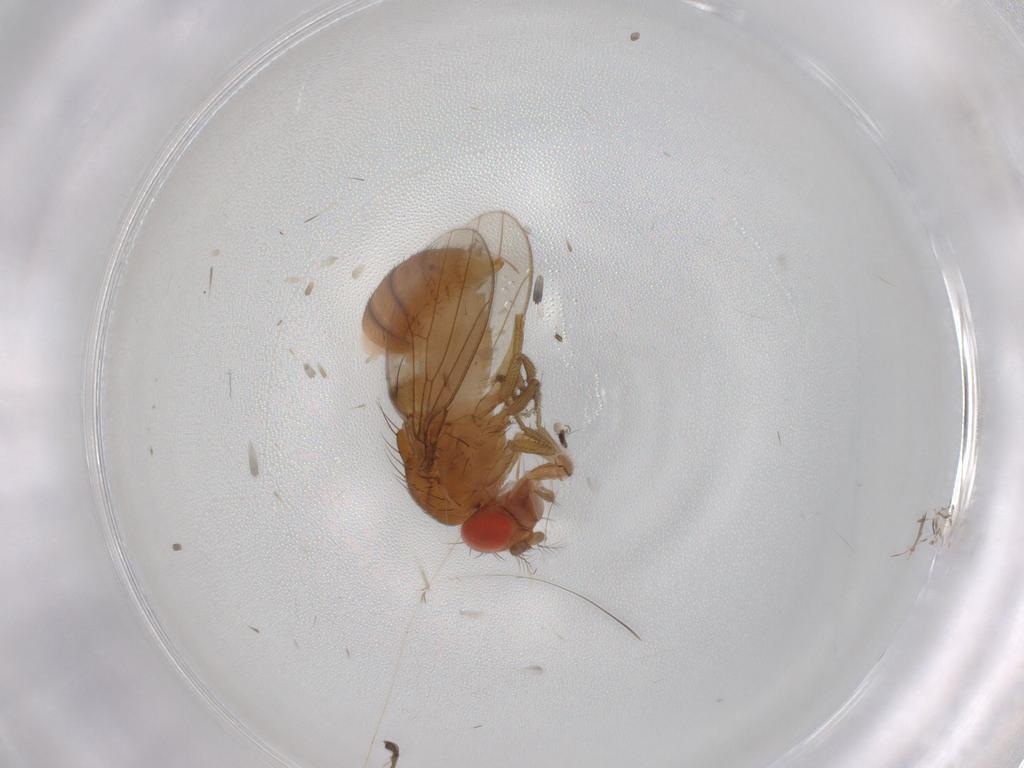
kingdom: Animalia
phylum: Arthropoda
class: Insecta
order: Diptera
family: Drosophilidae
